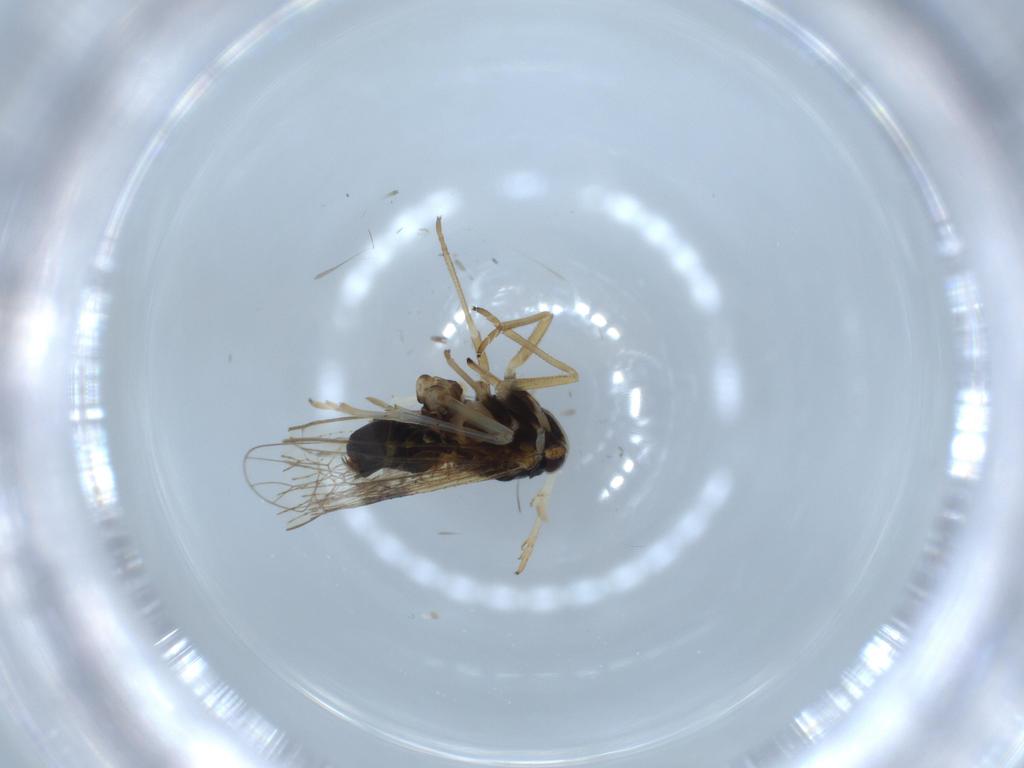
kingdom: Animalia
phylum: Arthropoda
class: Insecta
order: Hemiptera
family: Cicadellidae
